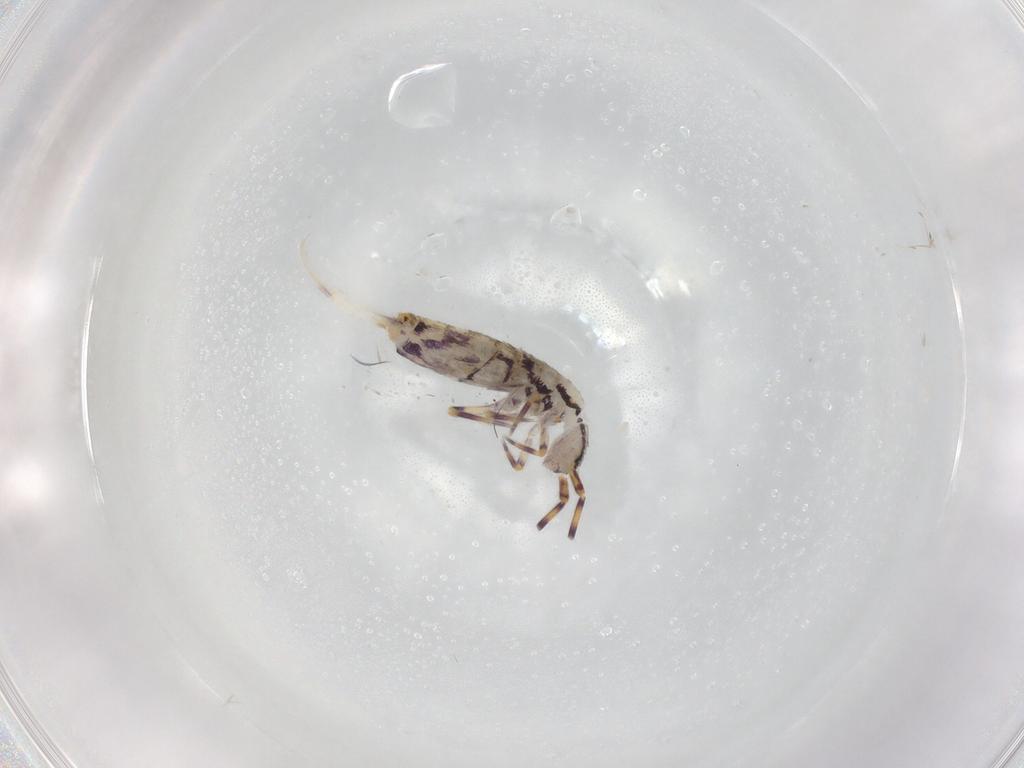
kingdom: Animalia
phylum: Arthropoda
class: Collembola
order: Entomobryomorpha
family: Entomobryidae
